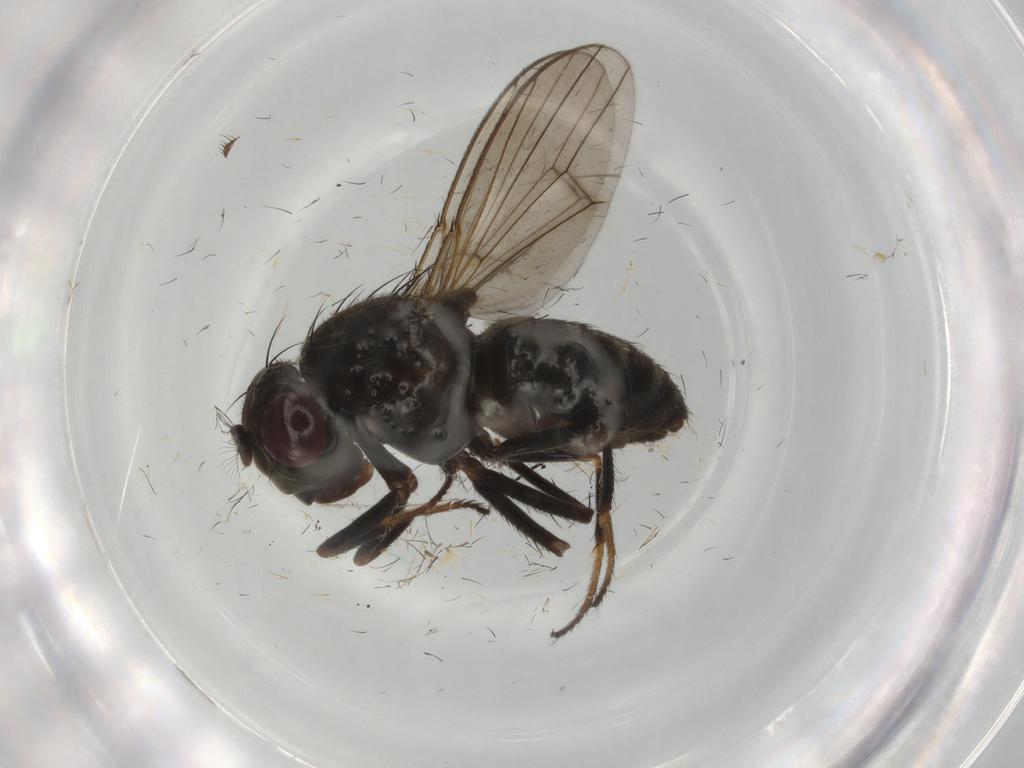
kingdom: Animalia
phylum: Arthropoda
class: Insecta
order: Diptera
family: Ephydridae
